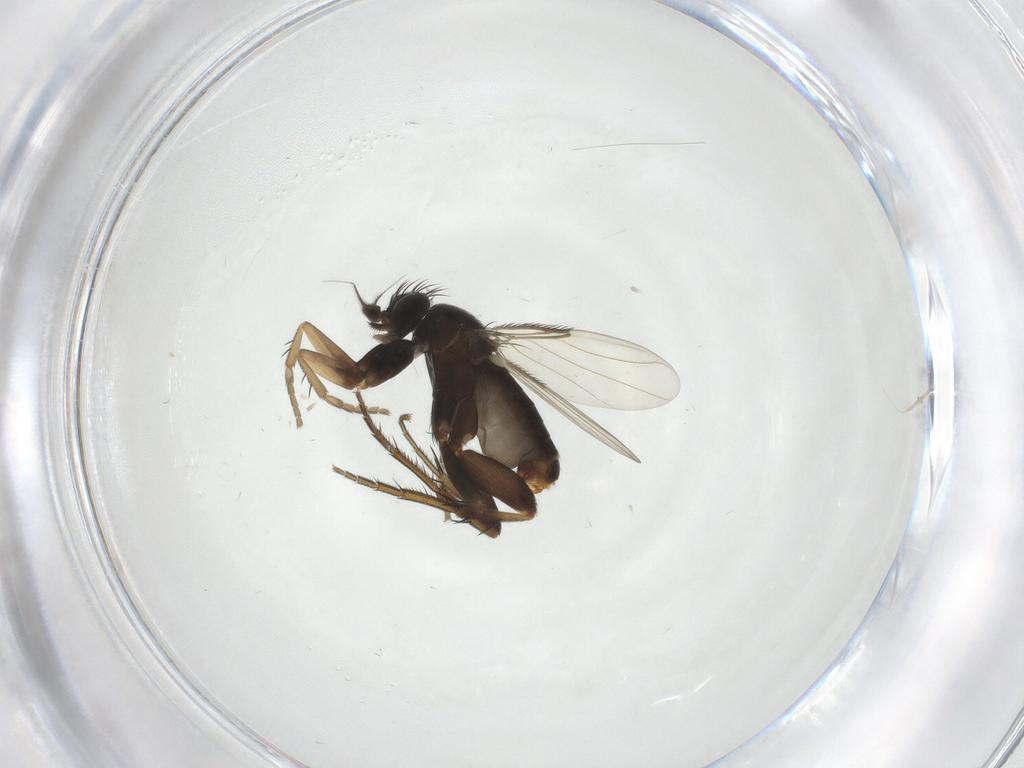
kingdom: Animalia
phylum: Arthropoda
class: Insecta
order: Diptera
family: Phoridae
